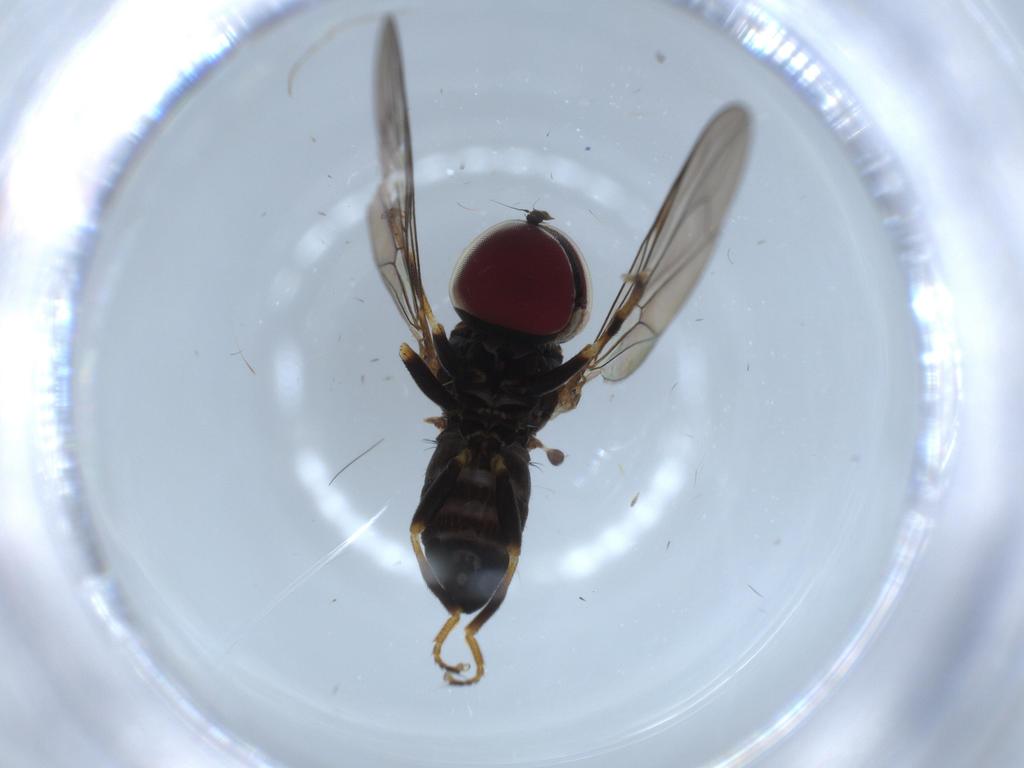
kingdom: Animalia
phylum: Arthropoda
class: Insecta
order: Diptera
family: Pipunculidae
